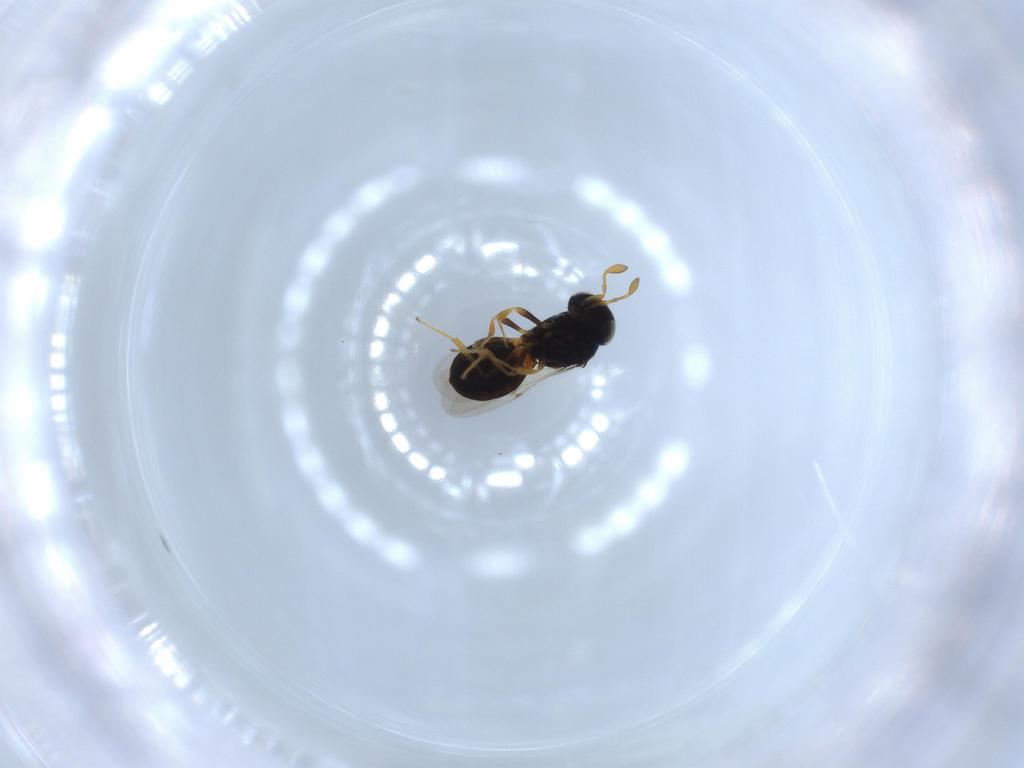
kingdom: Animalia
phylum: Arthropoda
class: Insecta
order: Hymenoptera
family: Scelionidae
